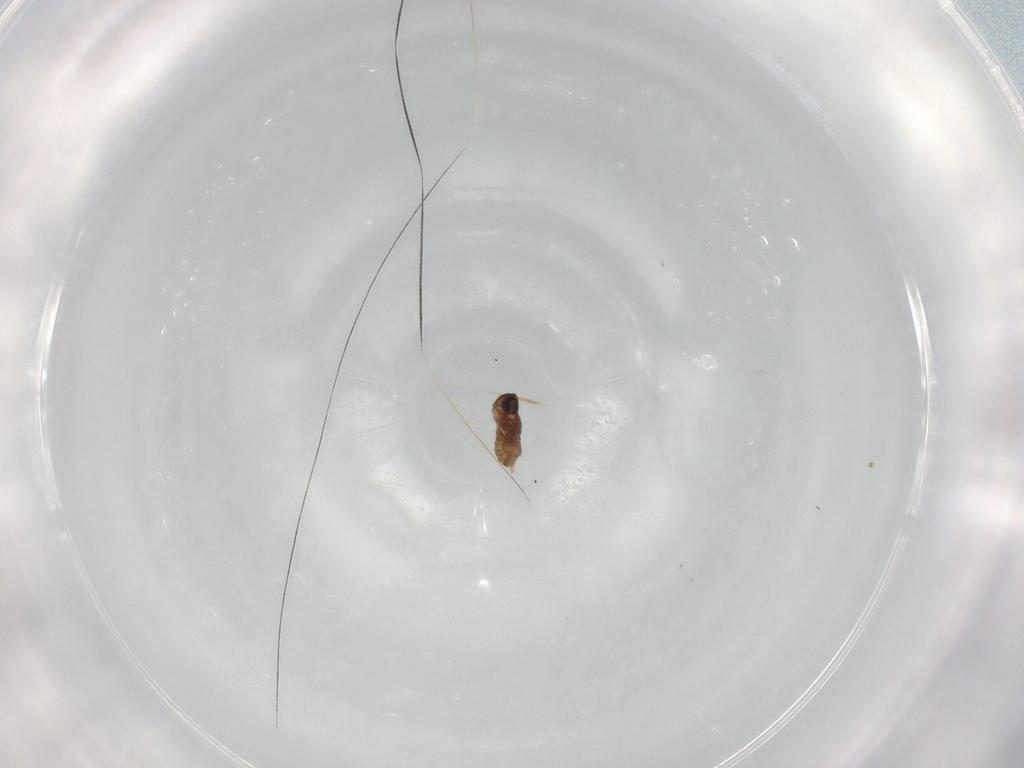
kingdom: Animalia
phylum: Arthropoda
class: Insecta
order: Diptera
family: Cecidomyiidae
